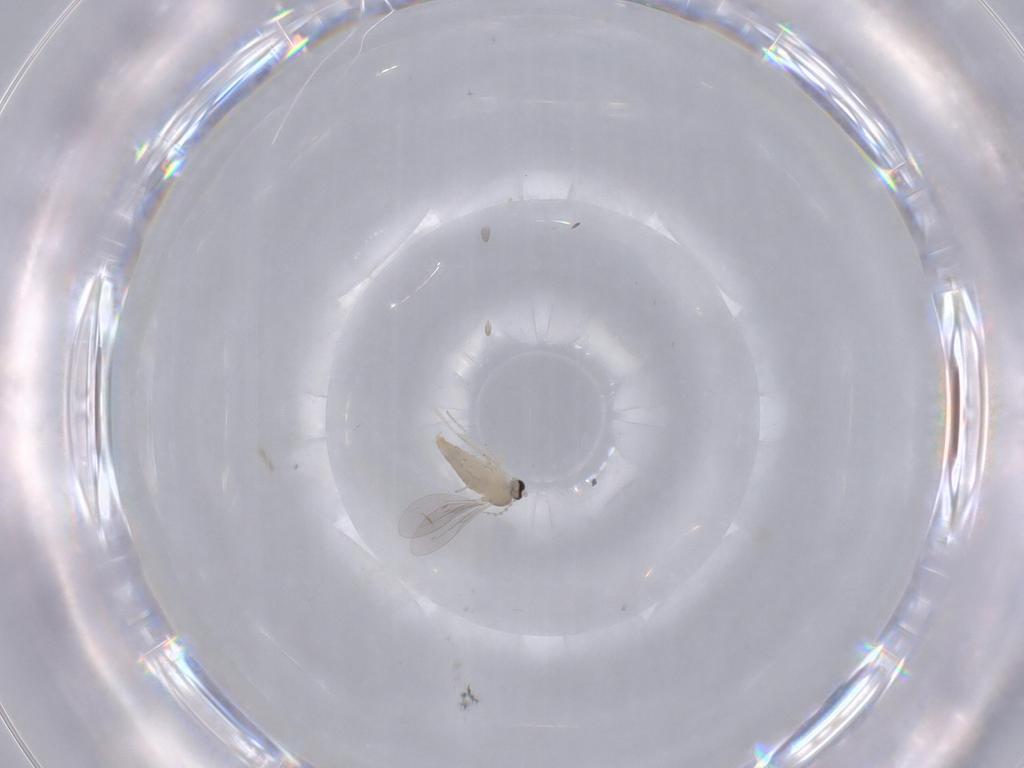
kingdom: Animalia
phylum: Arthropoda
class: Insecta
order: Diptera
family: Cecidomyiidae
